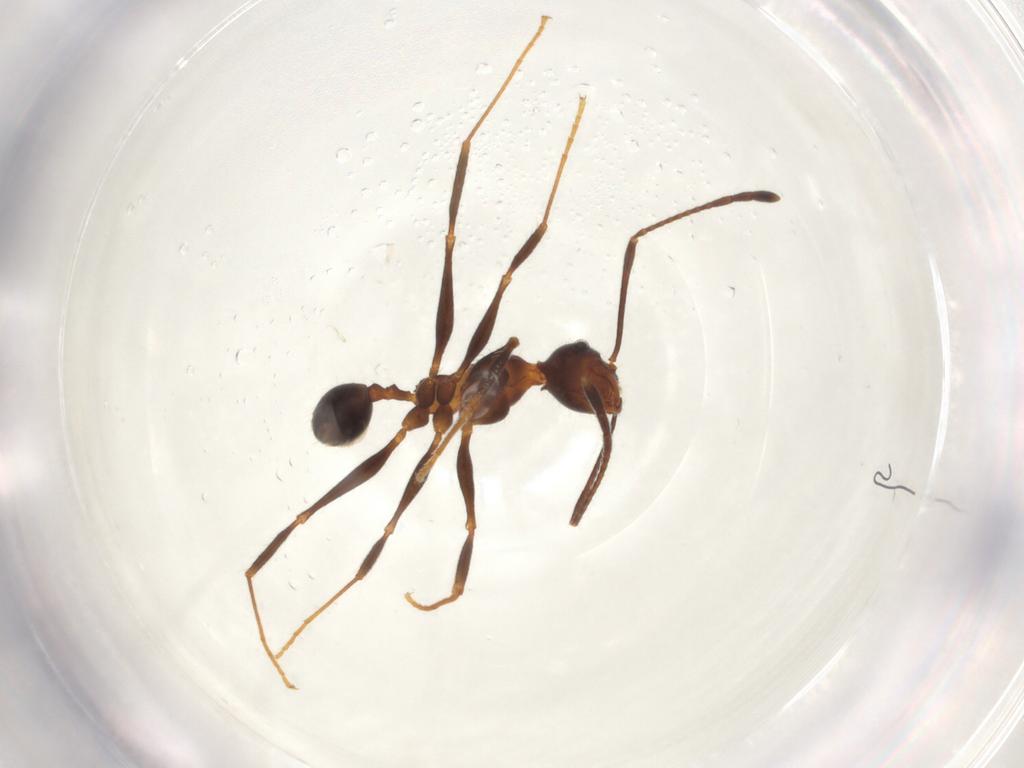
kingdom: Animalia
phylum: Arthropoda
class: Insecta
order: Hymenoptera
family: Formicidae
